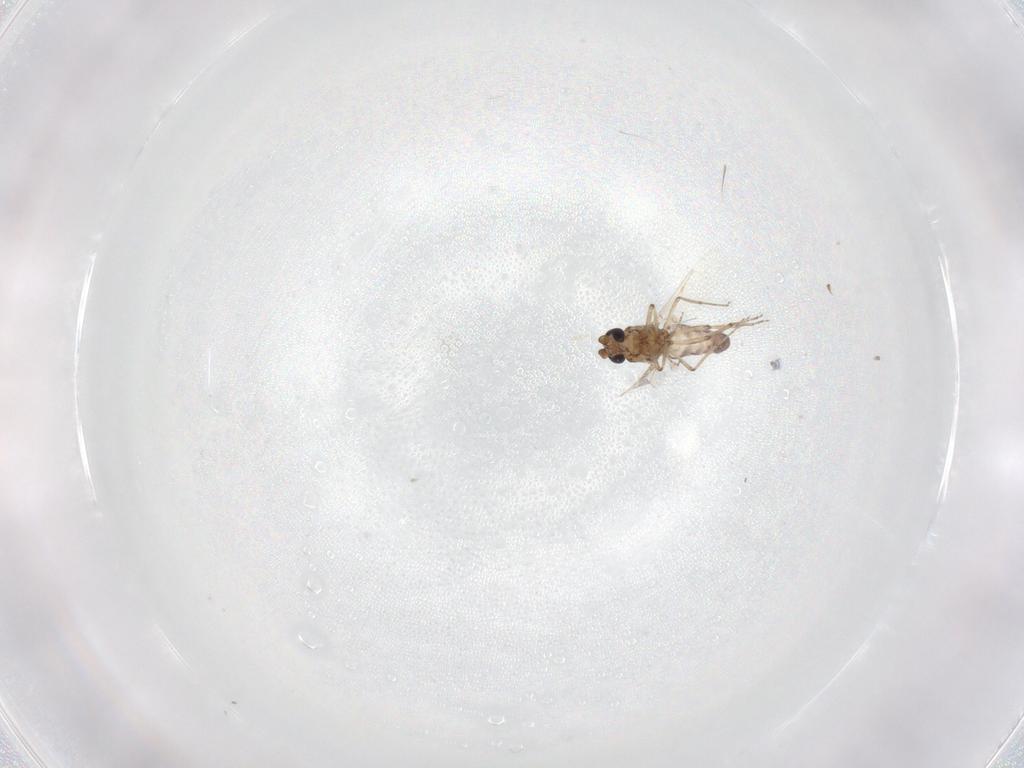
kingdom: Animalia
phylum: Arthropoda
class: Insecta
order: Diptera
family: Ceratopogonidae
